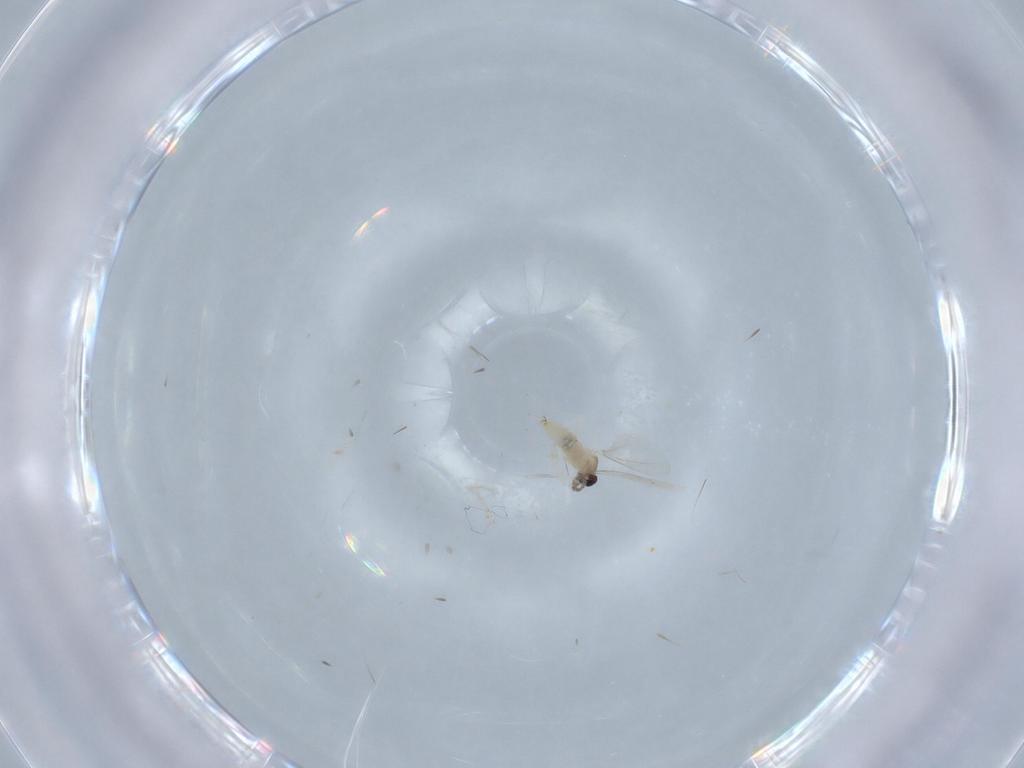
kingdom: Animalia
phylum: Arthropoda
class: Insecta
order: Diptera
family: Cecidomyiidae
